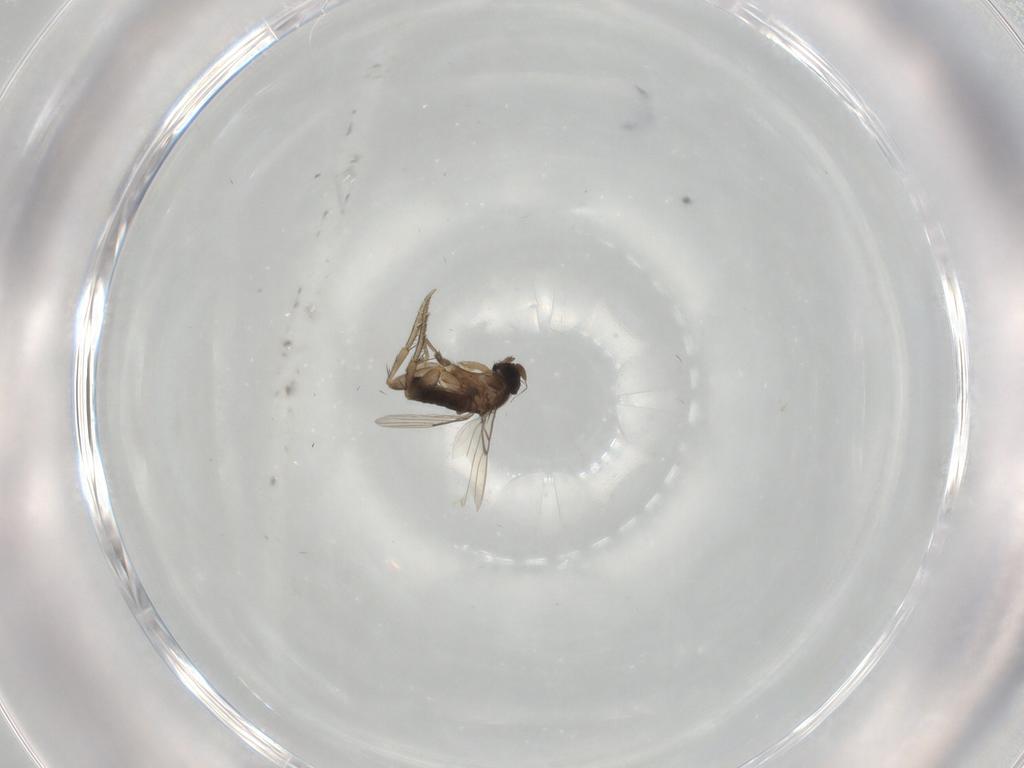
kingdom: Animalia
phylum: Arthropoda
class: Insecta
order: Diptera
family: Phoridae
